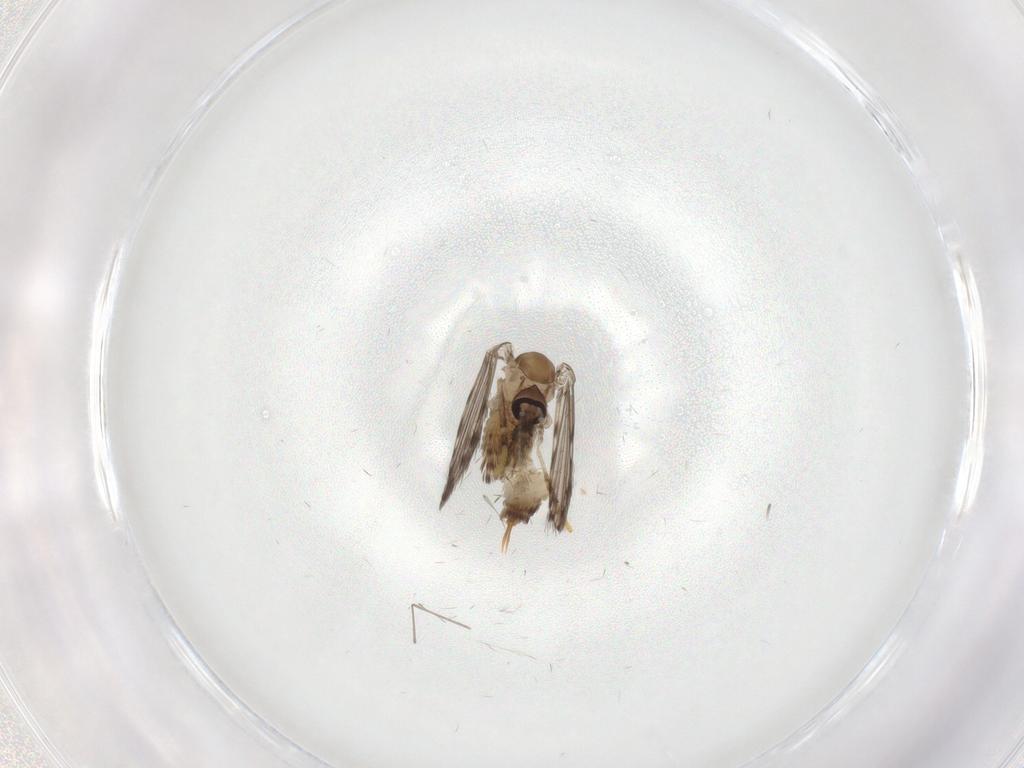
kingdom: Animalia
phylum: Arthropoda
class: Insecta
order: Diptera
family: Psychodidae
